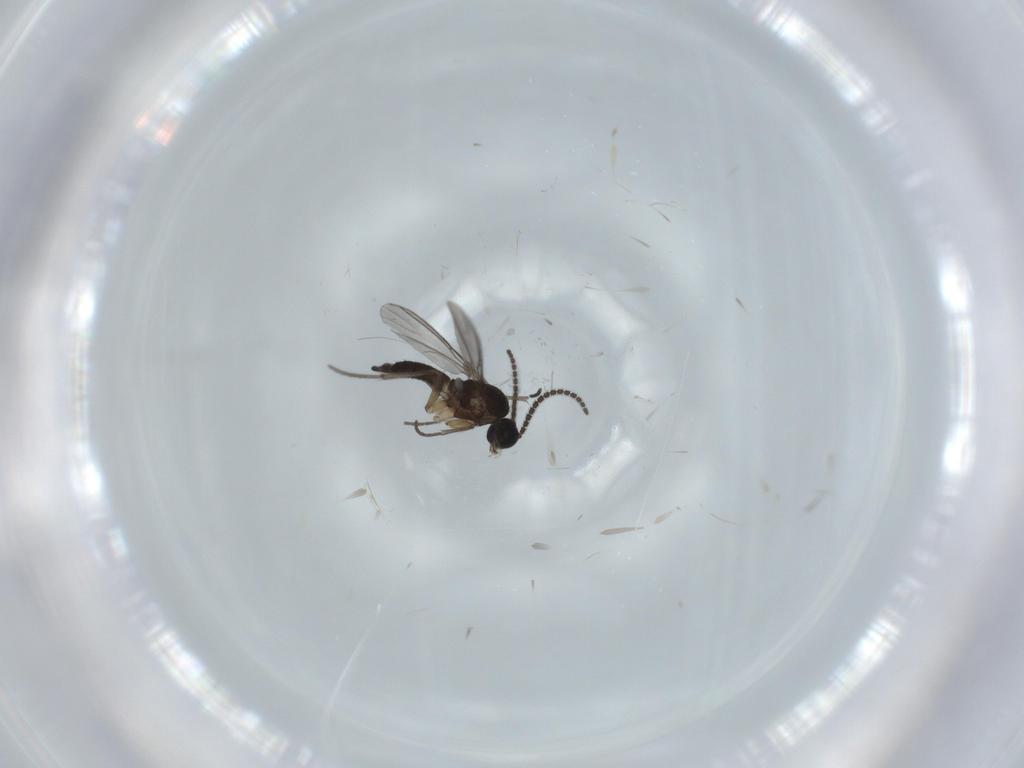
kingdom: Animalia
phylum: Arthropoda
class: Insecta
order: Diptera
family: Sciaridae
